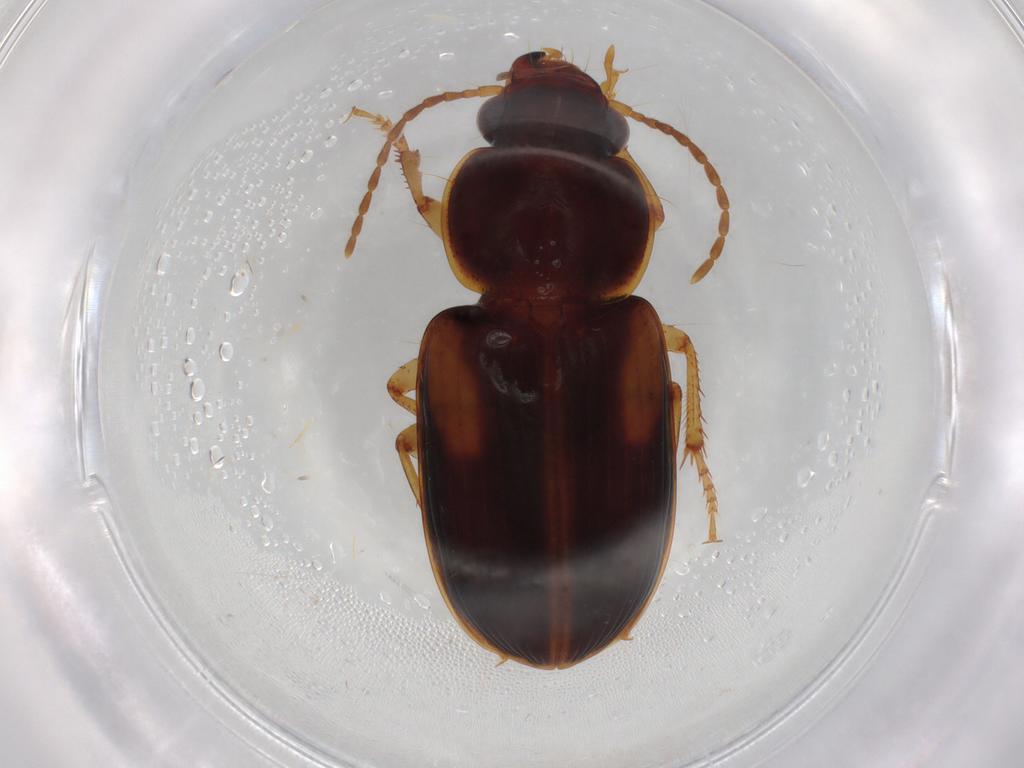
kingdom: Animalia
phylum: Arthropoda
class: Insecta
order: Coleoptera
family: Carabidae
